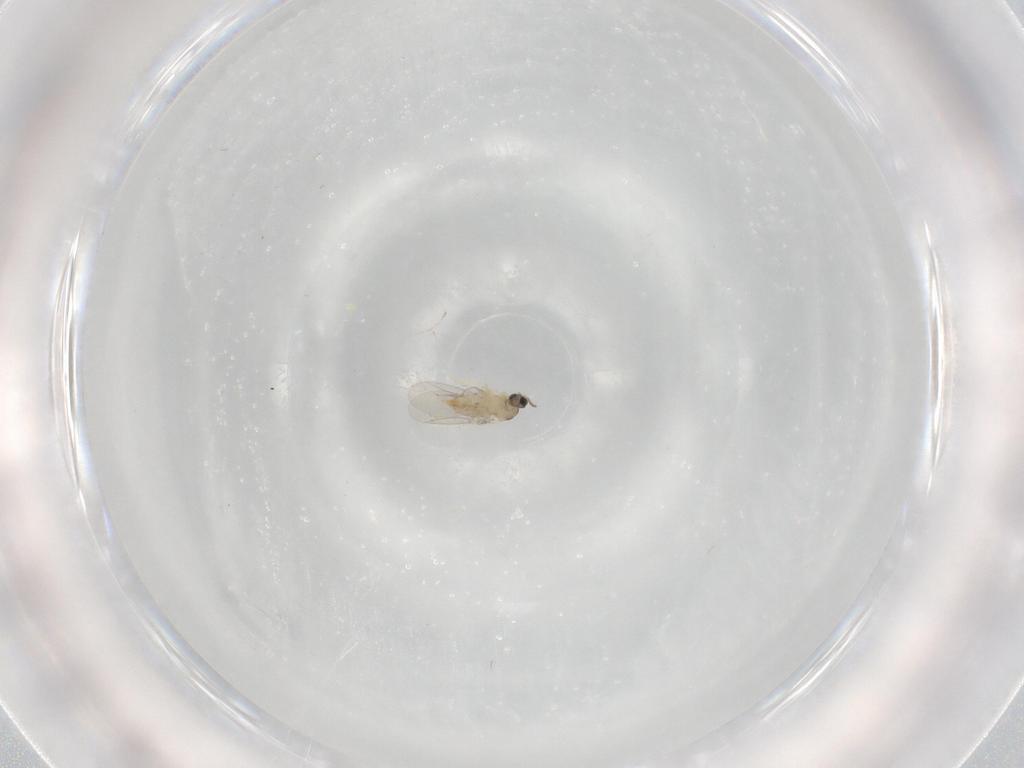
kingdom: Animalia
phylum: Arthropoda
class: Insecta
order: Diptera
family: Cecidomyiidae
